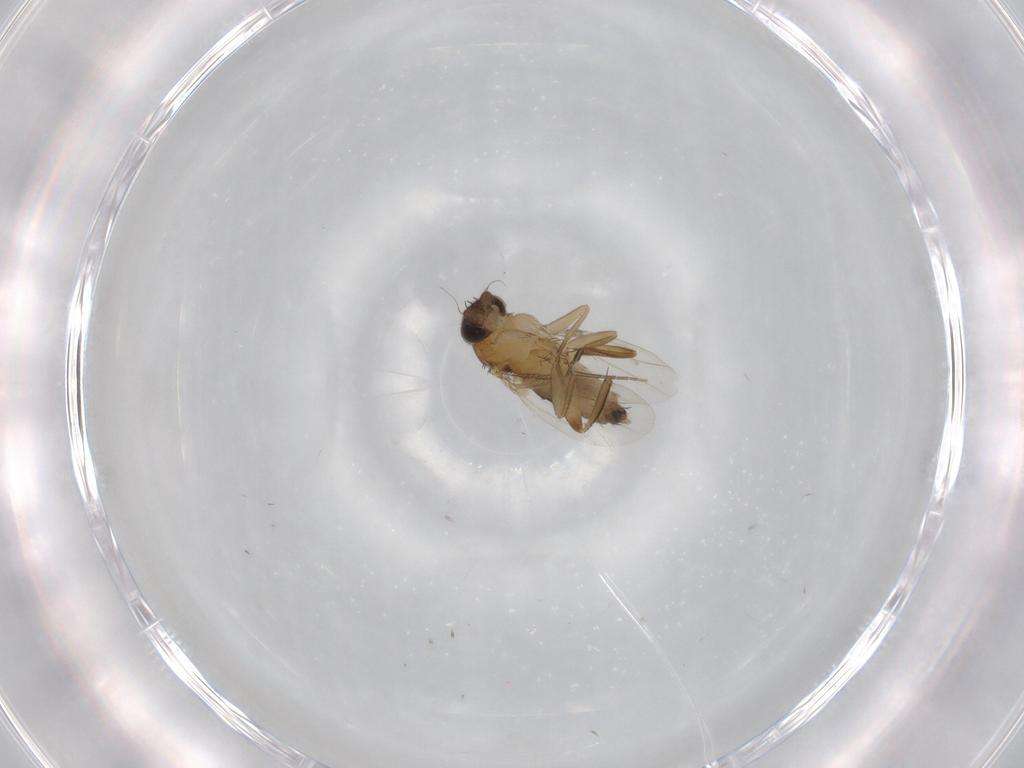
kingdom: Animalia
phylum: Arthropoda
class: Insecta
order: Diptera
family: Phoridae
